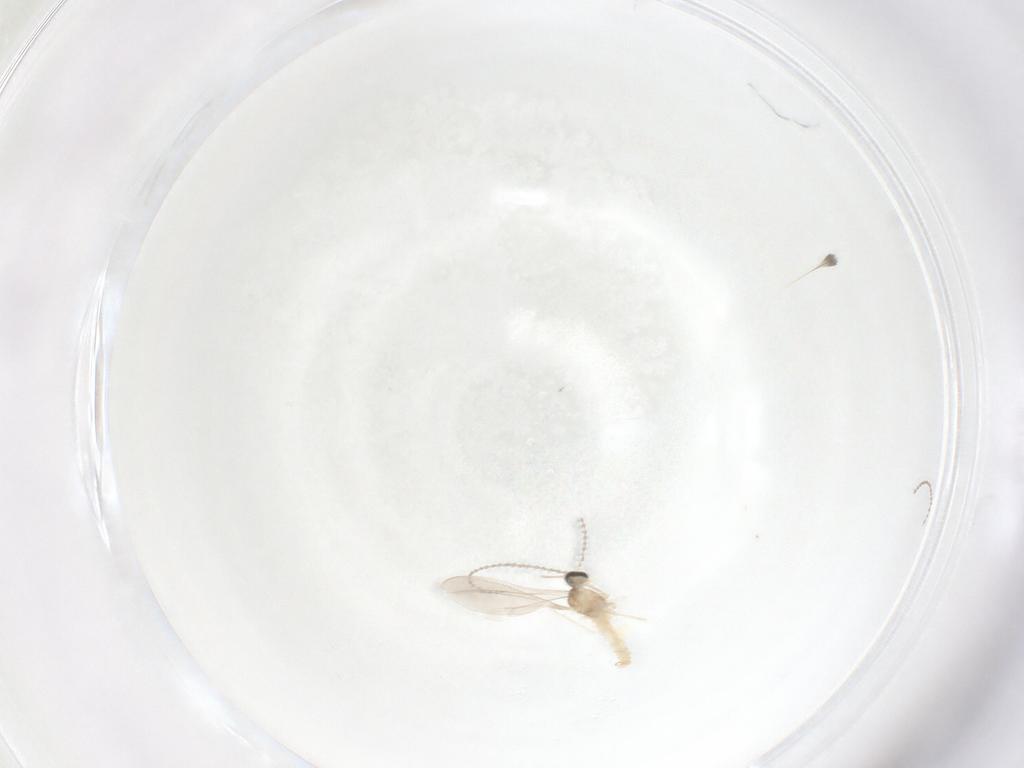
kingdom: Animalia
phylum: Arthropoda
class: Insecta
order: Diptera
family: Cecidomyiidae
